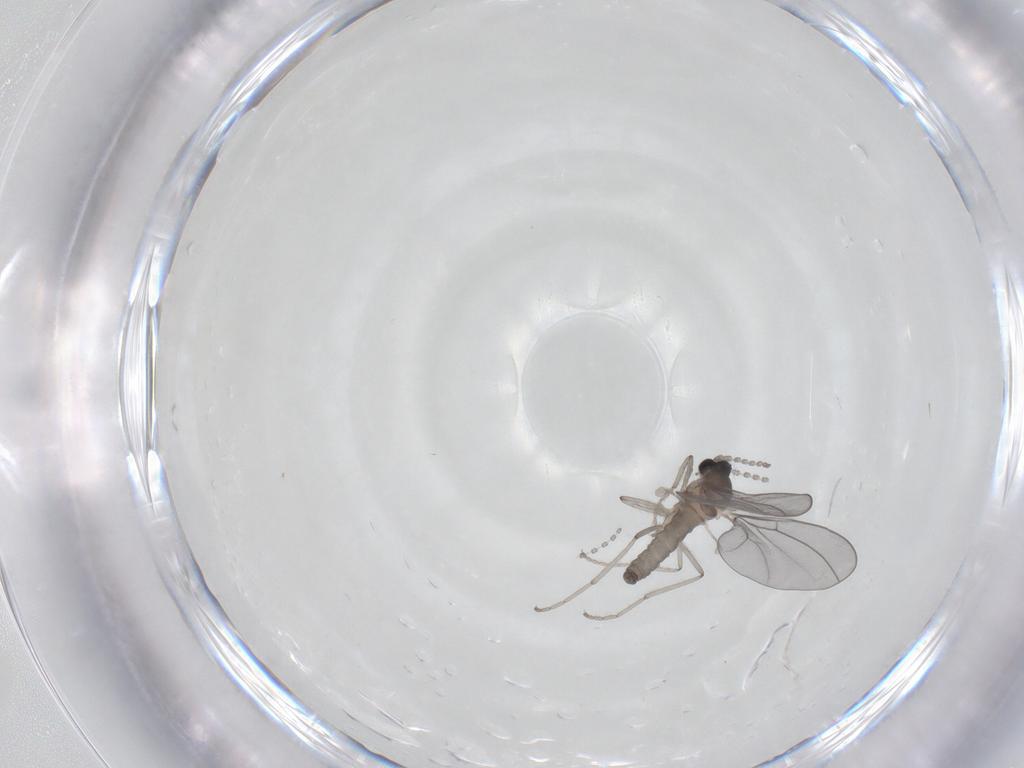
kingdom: Animalia
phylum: Arthropoda
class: Insecta
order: Diptera
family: Cecidomyiidae
